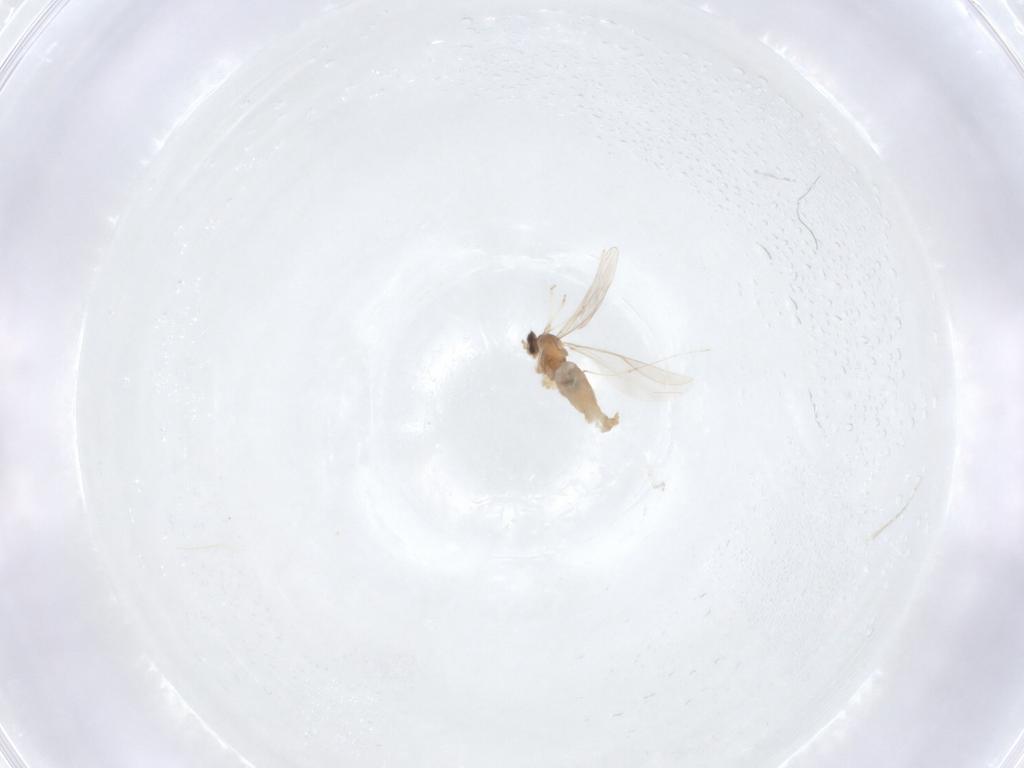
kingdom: Animalia
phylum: Arthropoda
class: Insecta
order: Diptera
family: Cecidomyiidae
